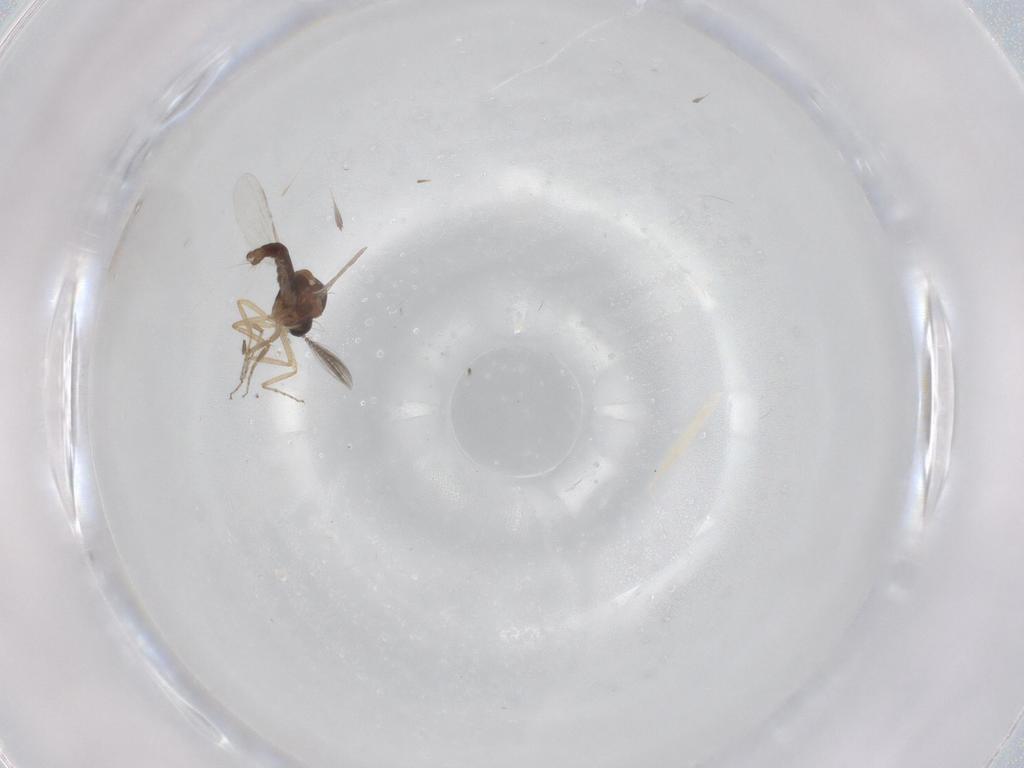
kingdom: Animalia
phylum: Arthropoda
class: Insecta
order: Diptera
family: Ceratopogonidae
